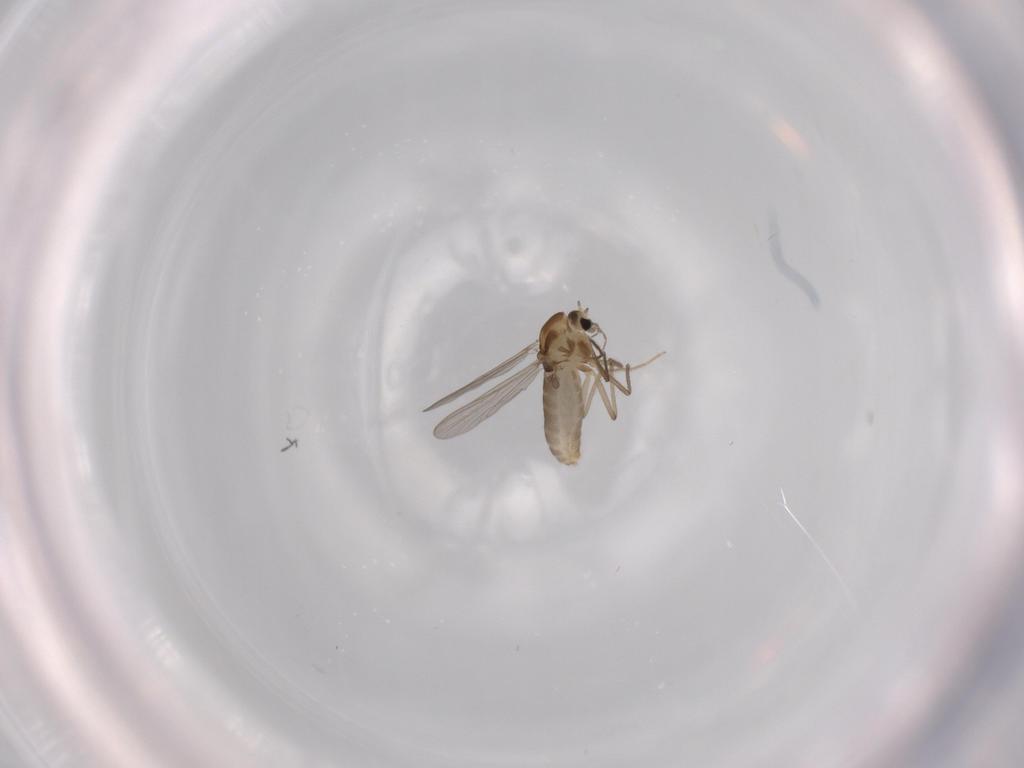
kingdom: Animalia
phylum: Arthropoda
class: Insecta
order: Diptera
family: Chironomidae
